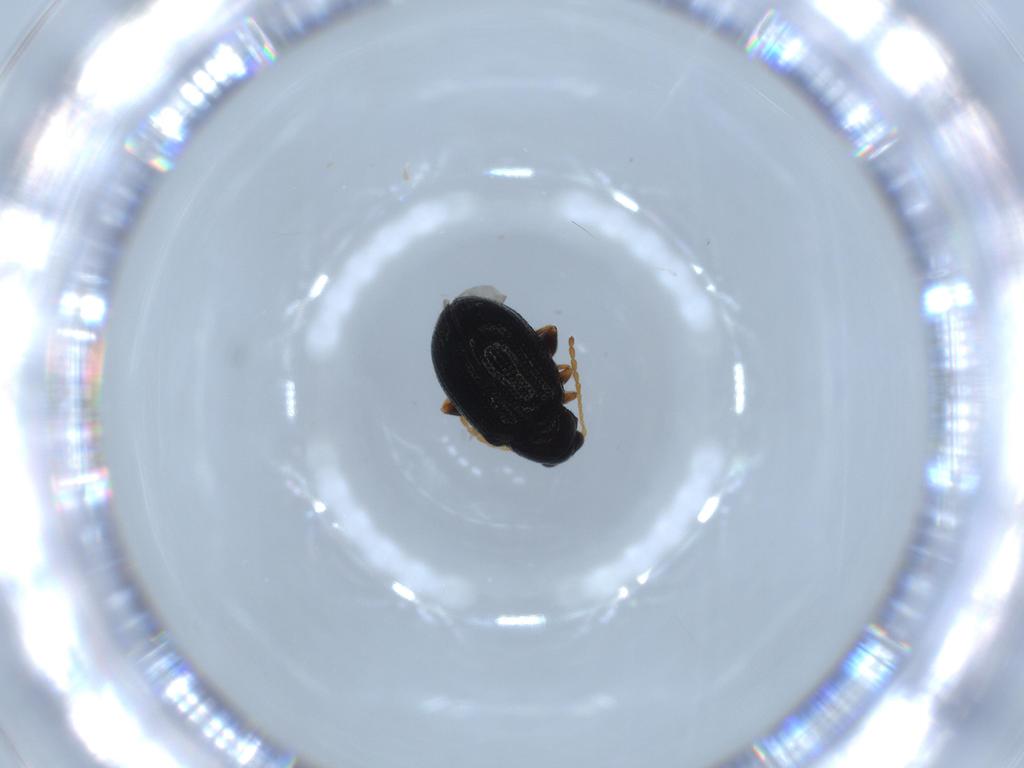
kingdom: Animalia
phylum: Arthropoda
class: Insecta
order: Coleoptera
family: Chrysomelidae
